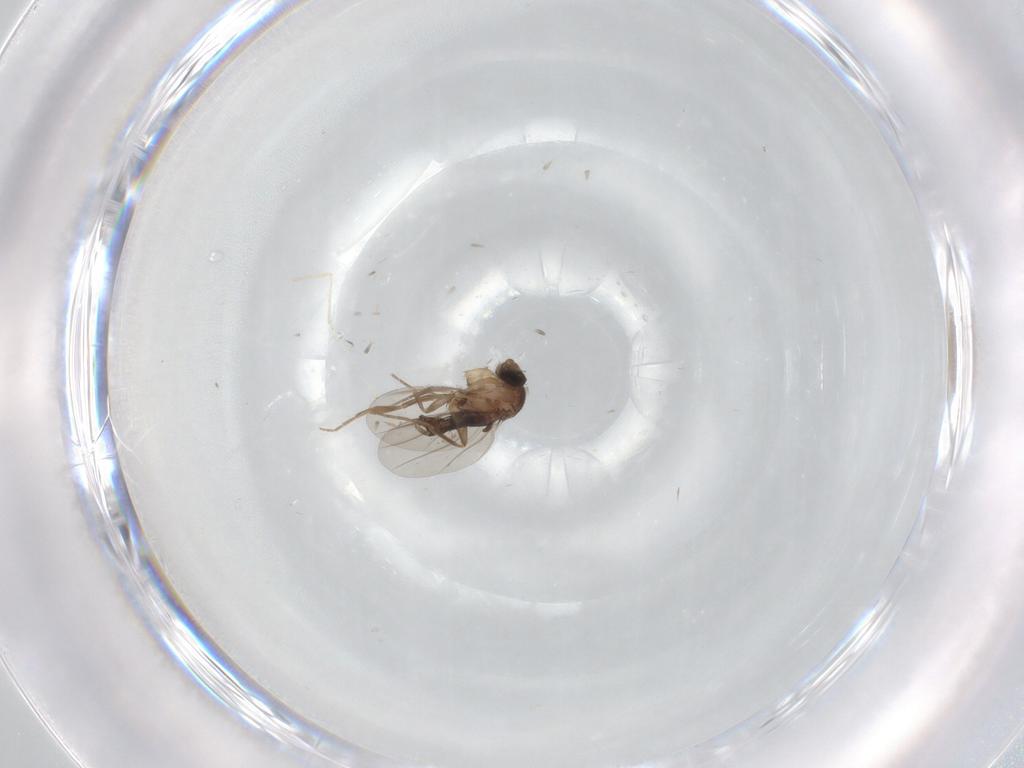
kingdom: Animalia
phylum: Arthropoda
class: Insecta
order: Diptera
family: Phoridae
